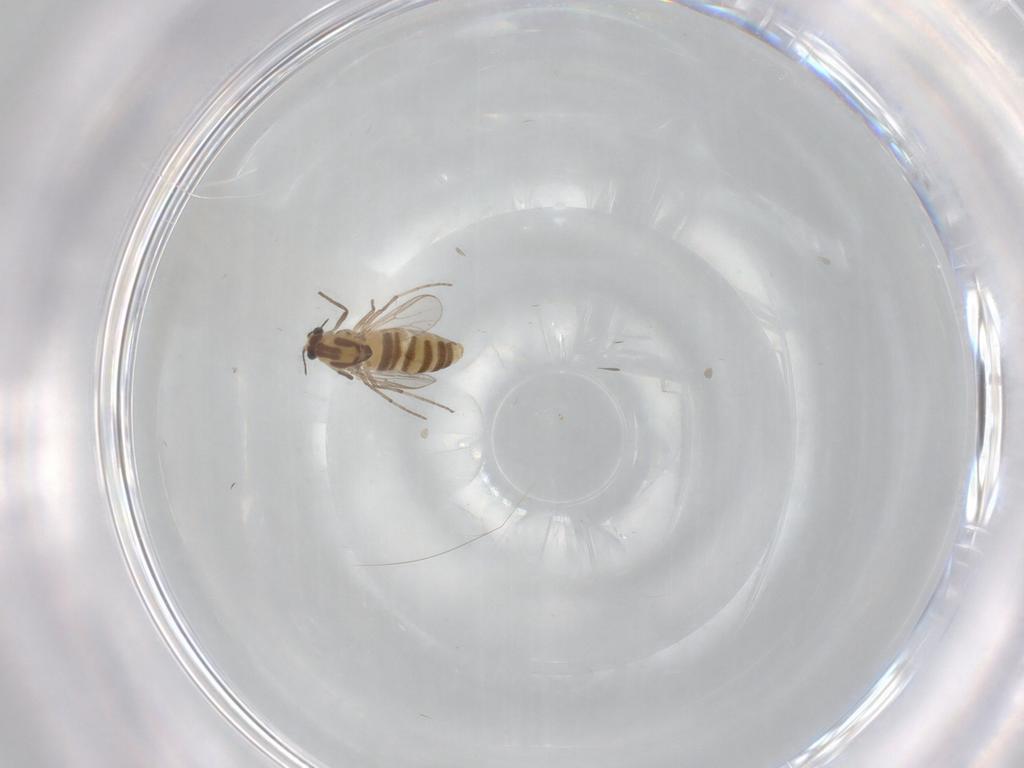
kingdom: Animalia
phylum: Arthropoda
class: Insecta
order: Diptera
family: Chironomidae
